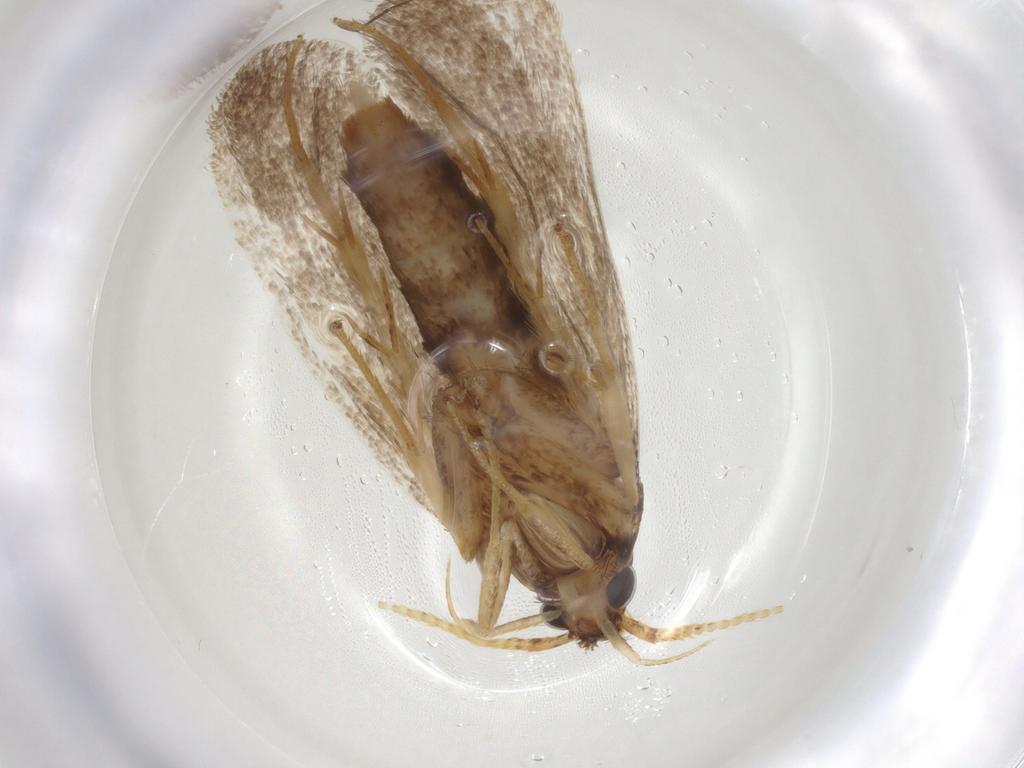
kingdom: Animalia
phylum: Arthropoda
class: Insecta
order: Lepidoptera
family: Lecithoceridae
